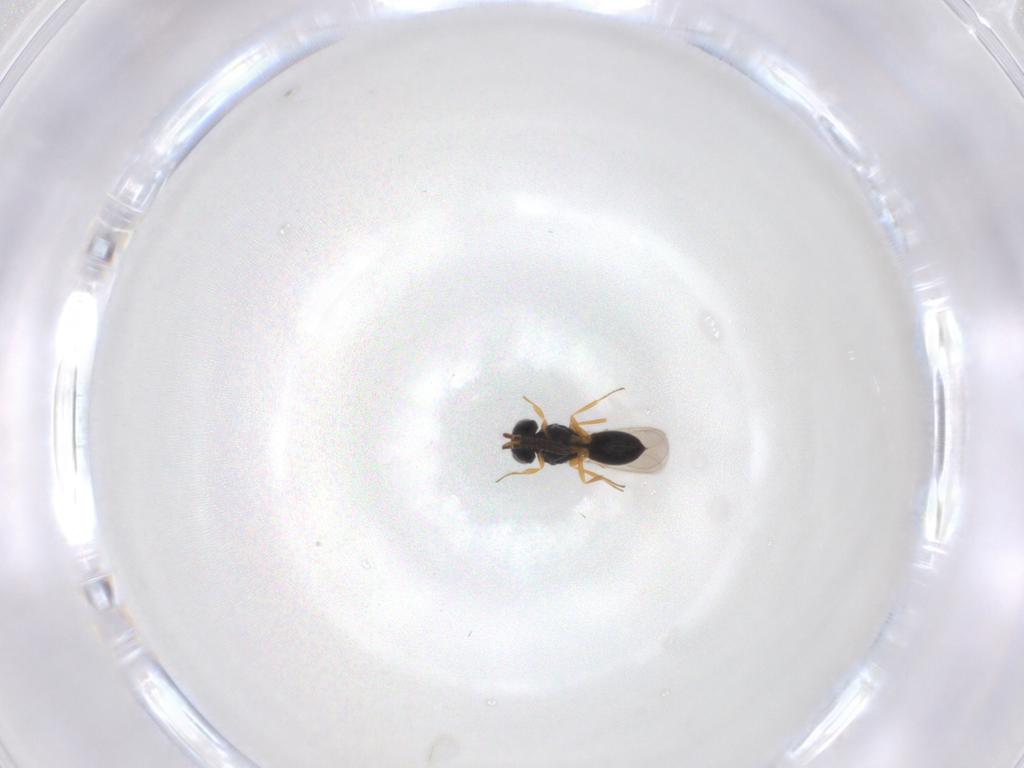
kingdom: Animalia
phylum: Arthropoda
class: Insecta
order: Hymenoptera
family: Scelionidae
